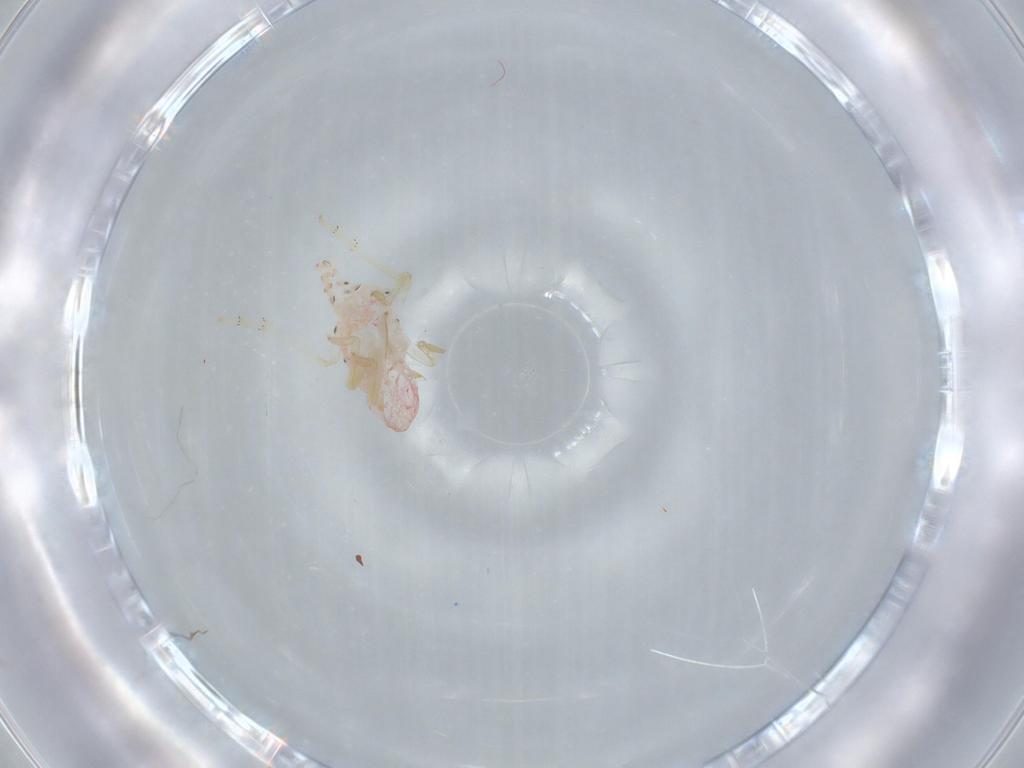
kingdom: Animalia
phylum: Arthropoda
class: Insecta
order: Hemiptera
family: Tropiduchidae
